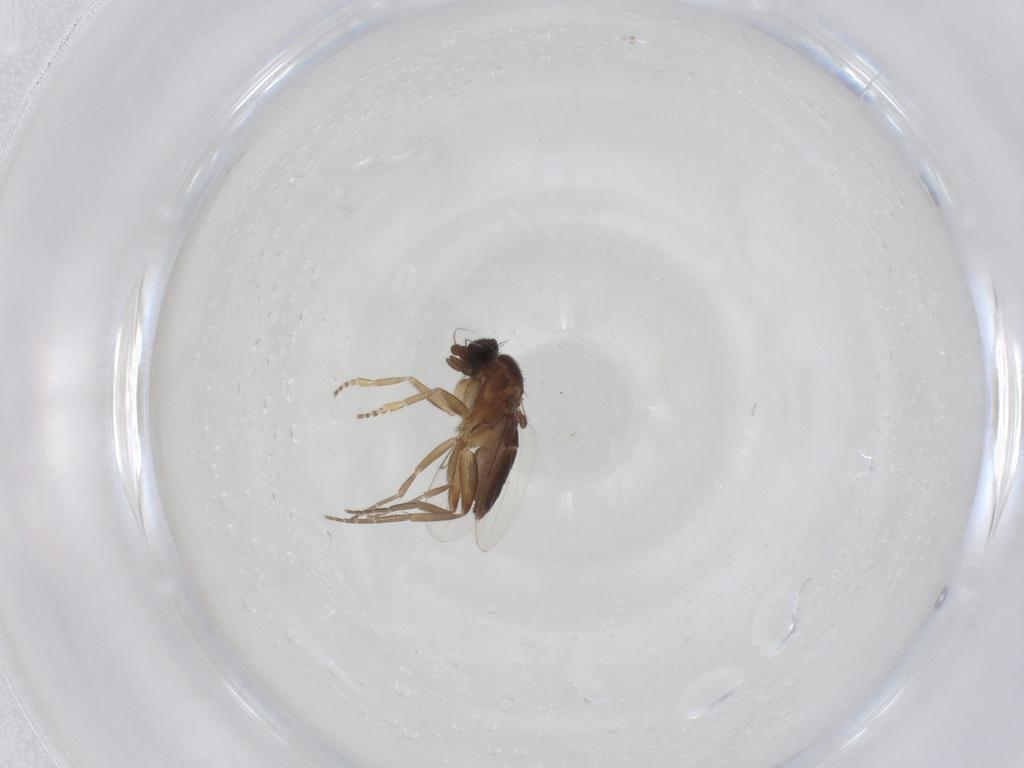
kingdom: Animalia
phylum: Arthropoda
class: Insecta
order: Diptera
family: Phoridae
